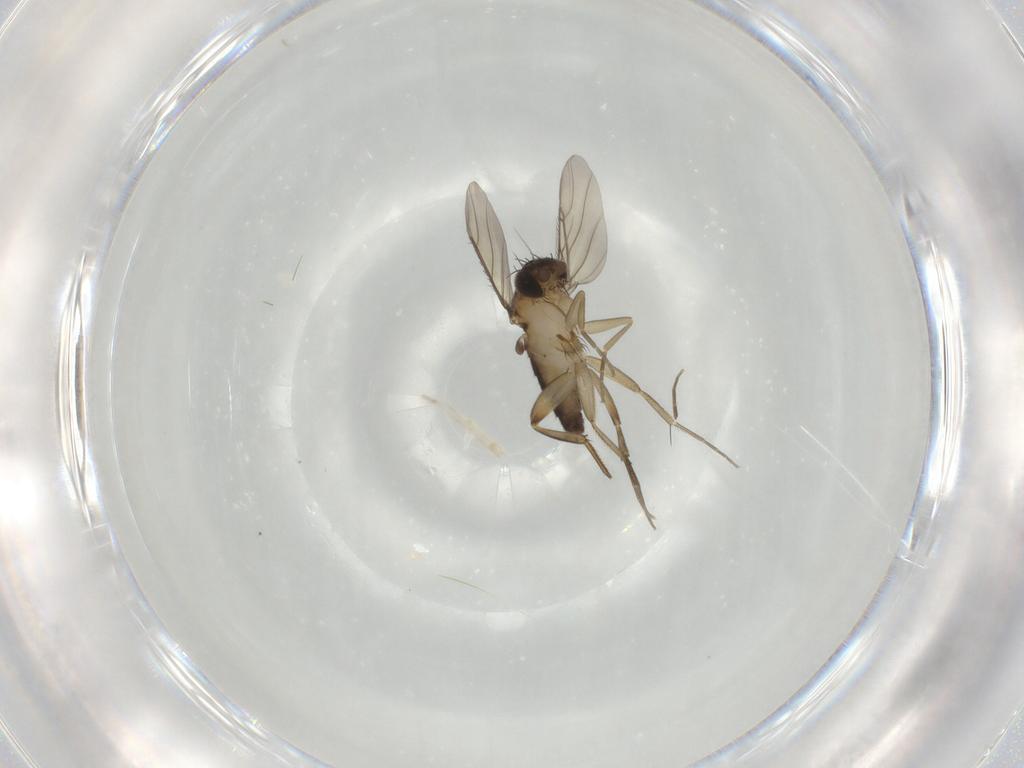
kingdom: Animalia
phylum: Arthropoda
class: Insecta
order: Diptera
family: Phoridae
